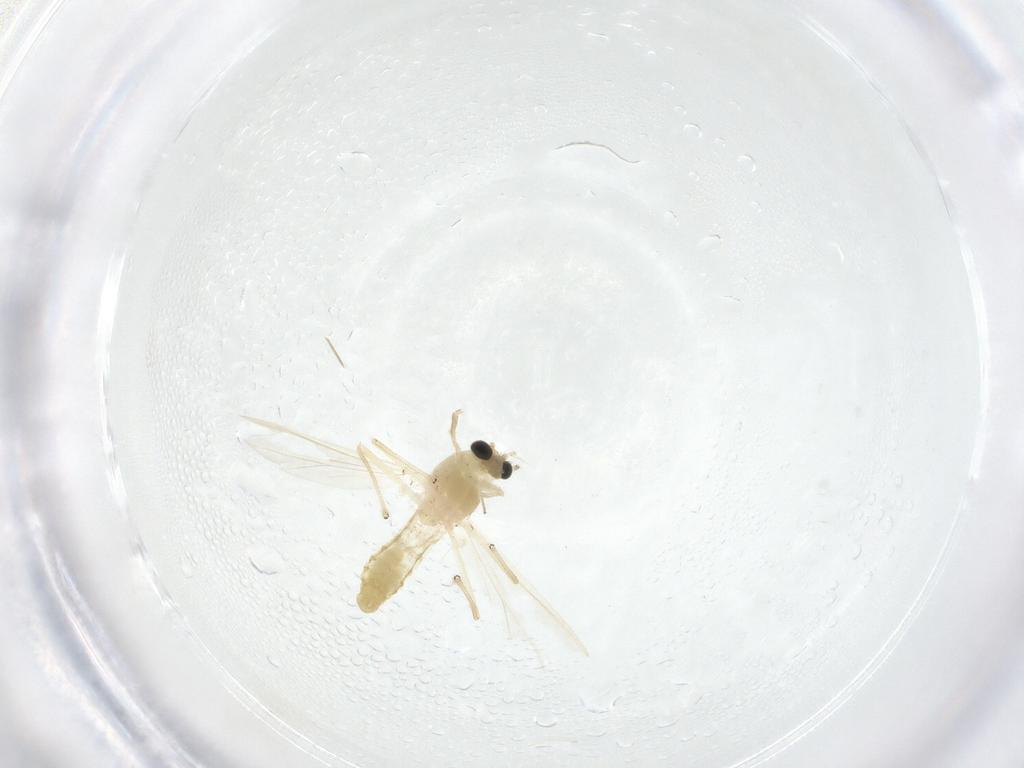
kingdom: Animalia
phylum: Arthropoda
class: Insecta
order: Diptera
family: Chironomidae
